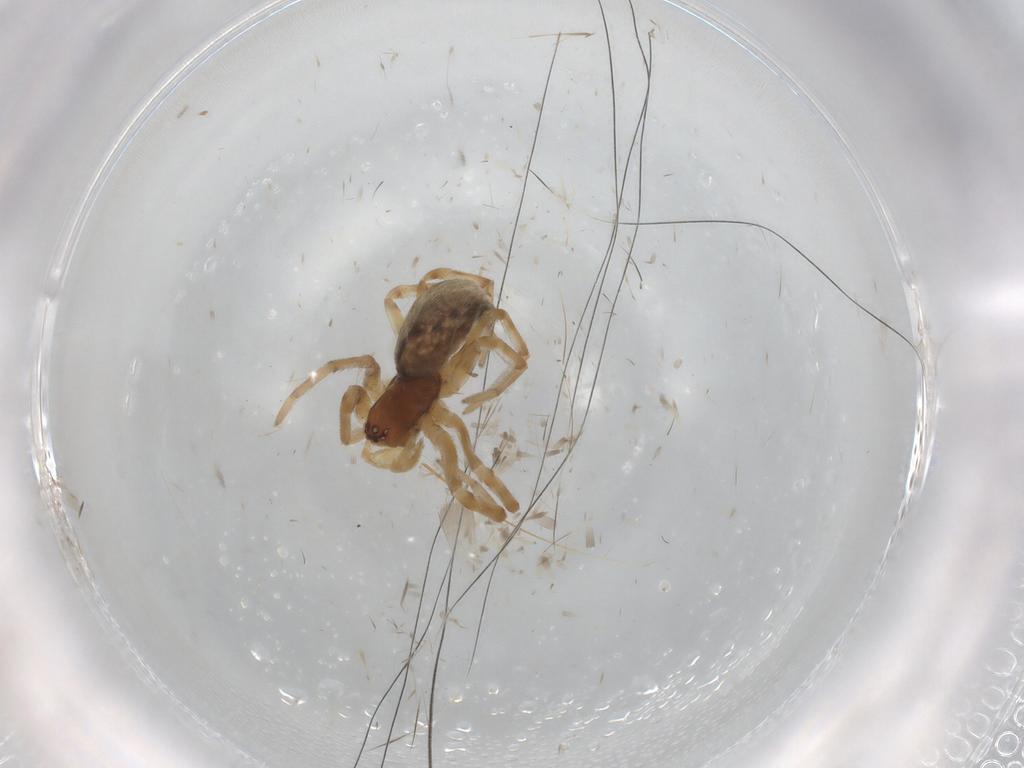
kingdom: Animalia
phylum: Arthropoda
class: Arachnida
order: Araneae
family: Dictynidae
